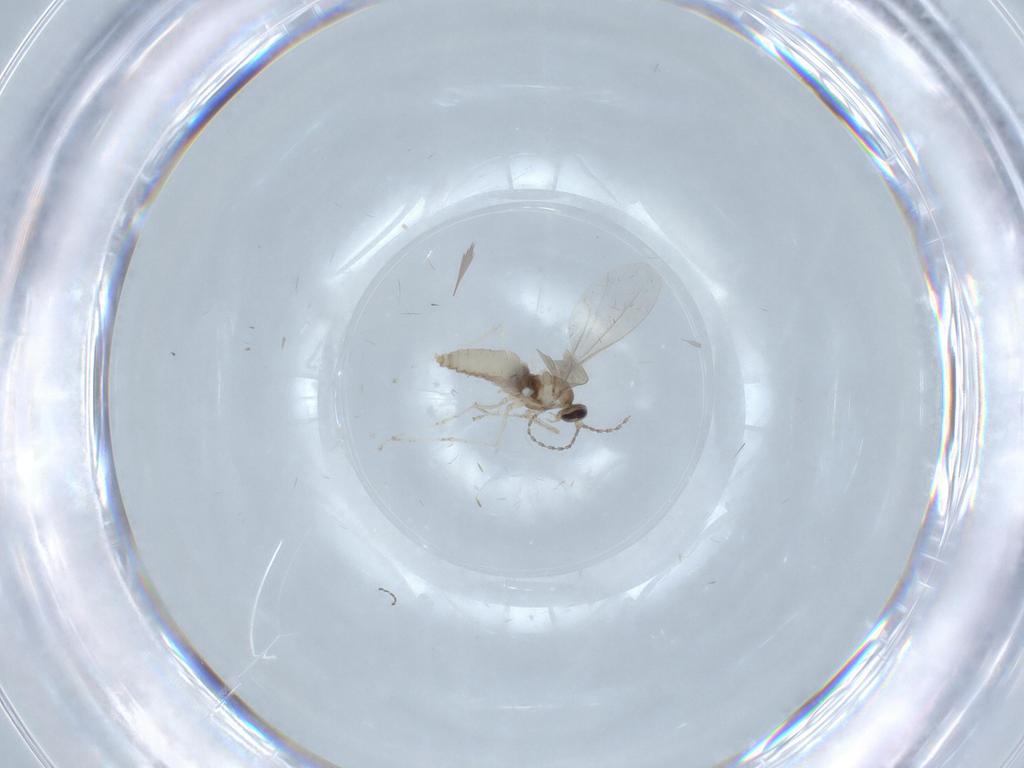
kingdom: Animalia
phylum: Arthropoda
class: Insecta
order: Diptera
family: Cecidomyiidae
